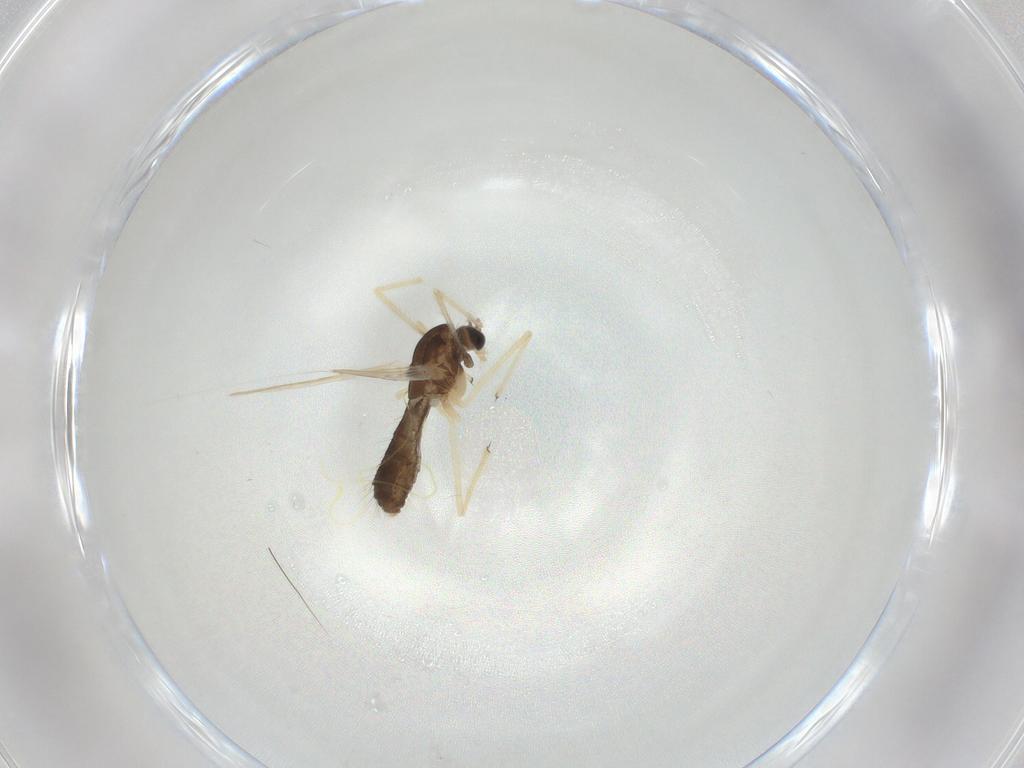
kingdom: Animalia
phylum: Arthropoda
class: Insecta
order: Diptera
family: Chironomidae
